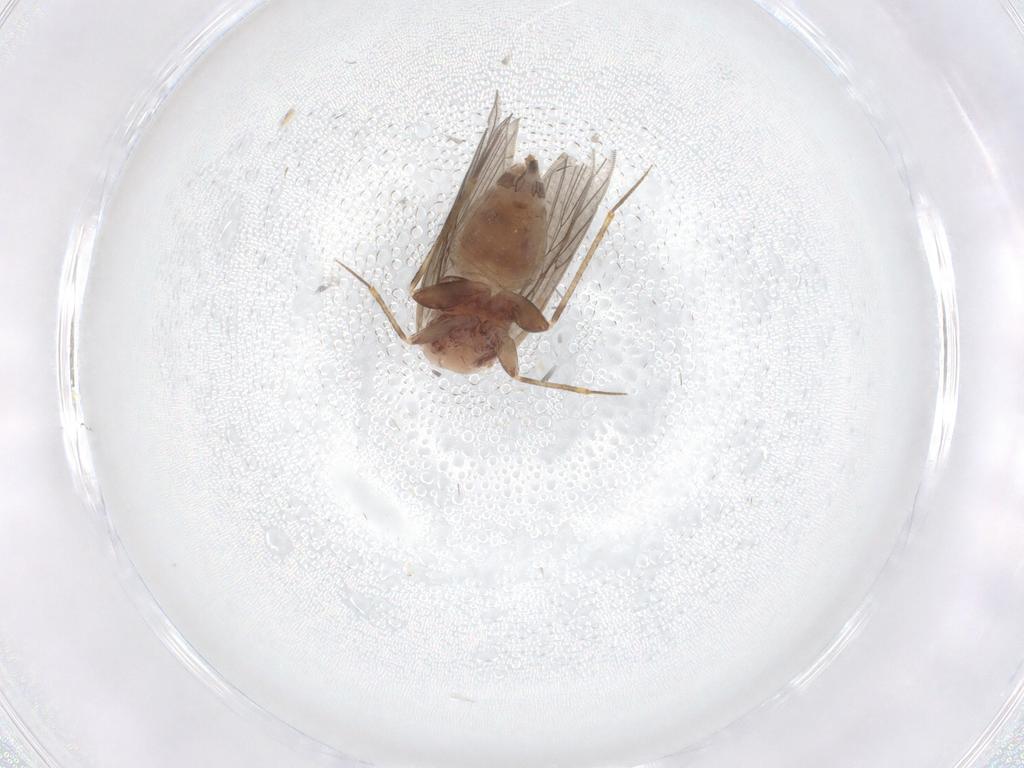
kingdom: Animalia
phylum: Arthropoda
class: Insecta
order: Psocodea
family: Lepidopsocidae
